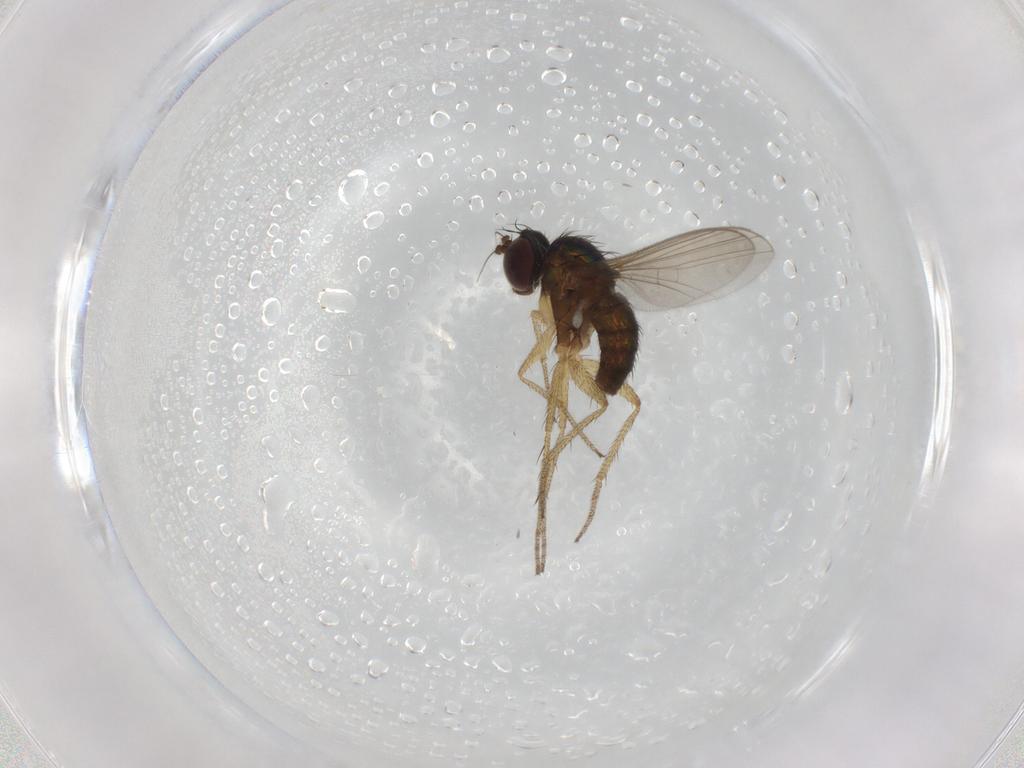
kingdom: Animalia
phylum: Arthropoda
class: Insecta
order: Diptera
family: Dolichopodidae
